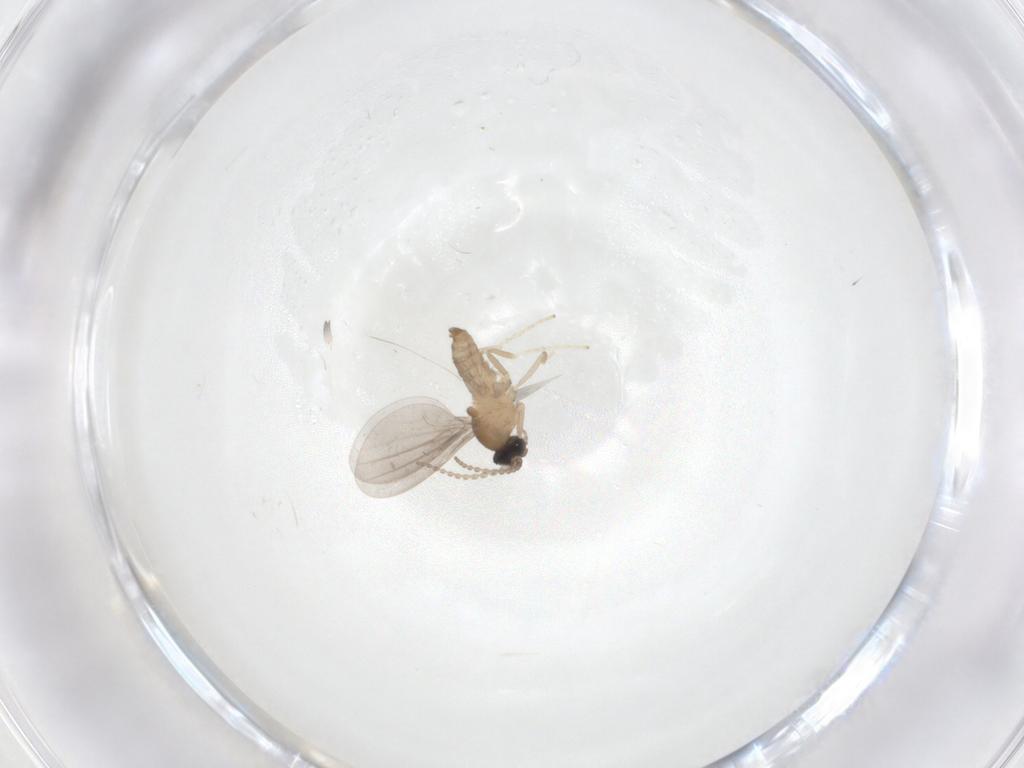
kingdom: Animalia
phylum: Arthropoda
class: Insecta
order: Diptera
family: Cecidomyiidae
